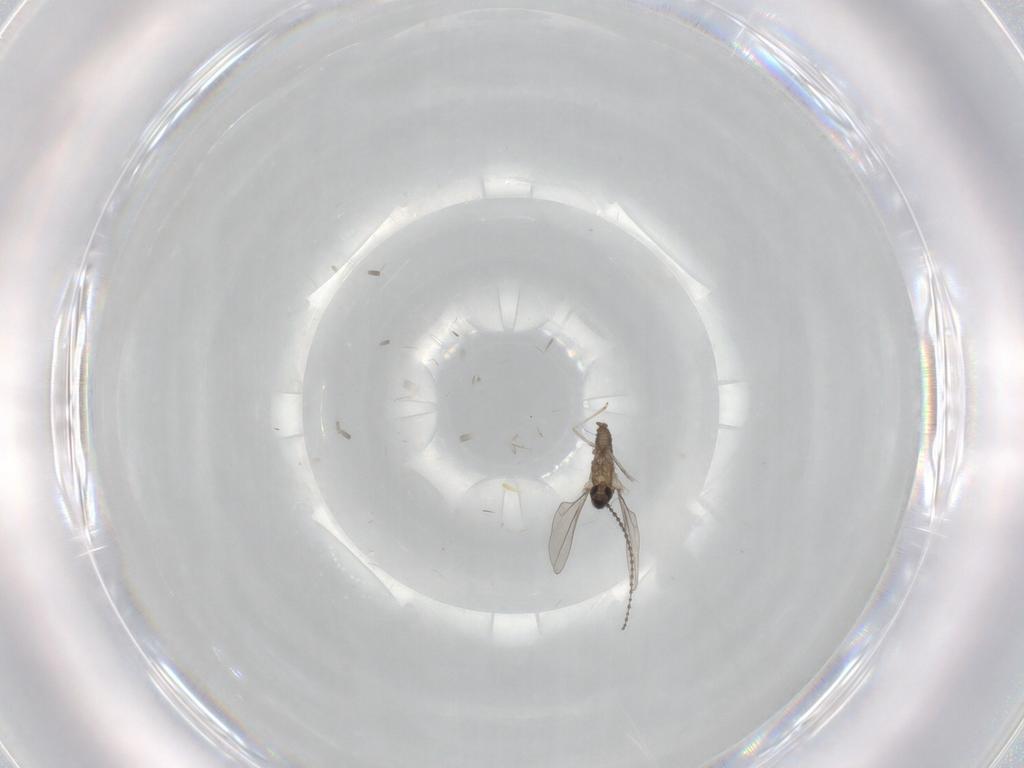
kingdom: Animalia
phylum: Arthropoda
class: Insecta
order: Diptera
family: Cecidomyiidae
